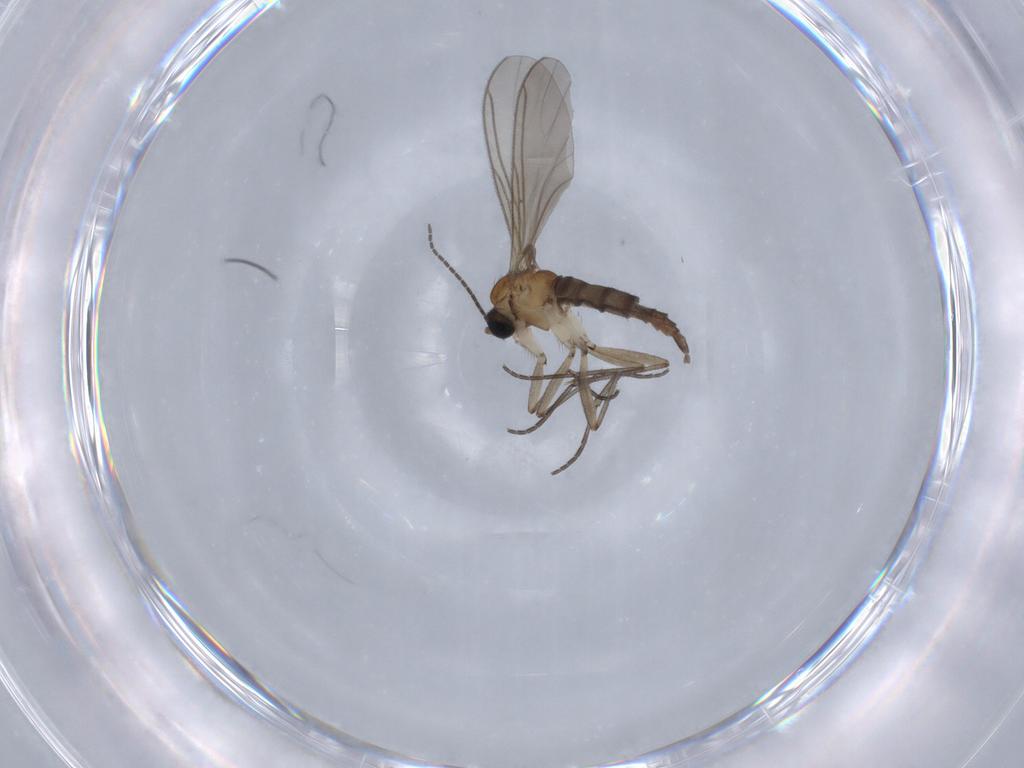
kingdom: Animalia
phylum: Arthropoda
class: Insecta
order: Diptera
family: Sciaridae
